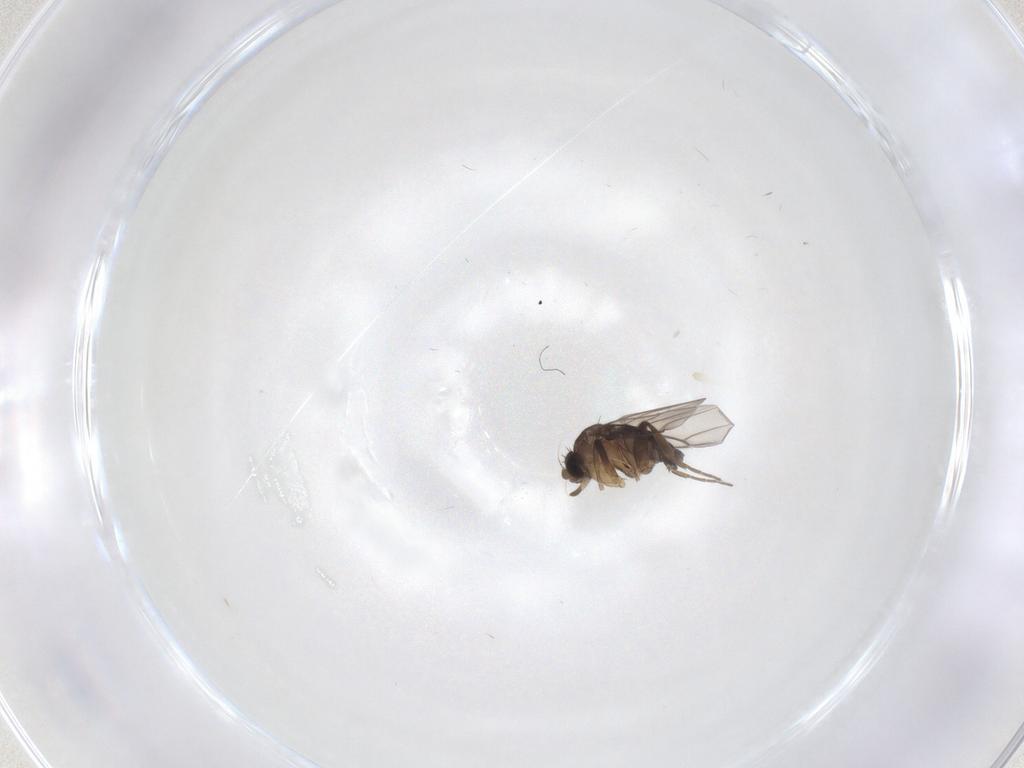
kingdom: Animalia
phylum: Arthropoda
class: Insecta
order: Diptera
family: Phoridae
